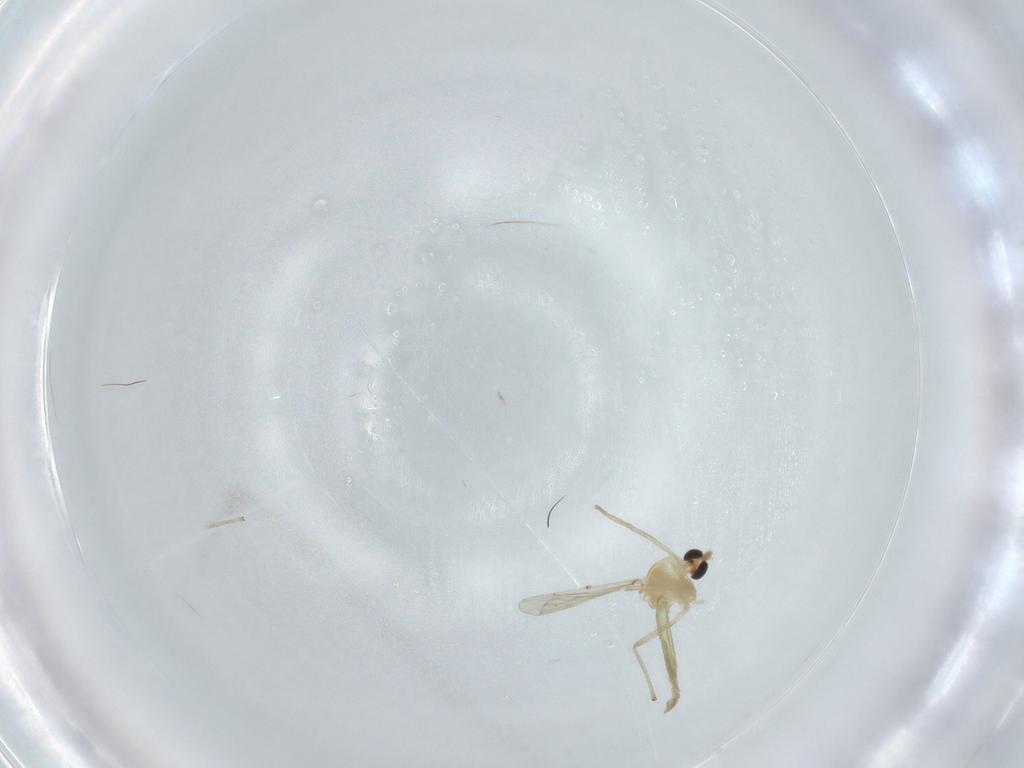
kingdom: Animalia
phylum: Arthropoda
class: Insecta
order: Diptera
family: Chironomidae
